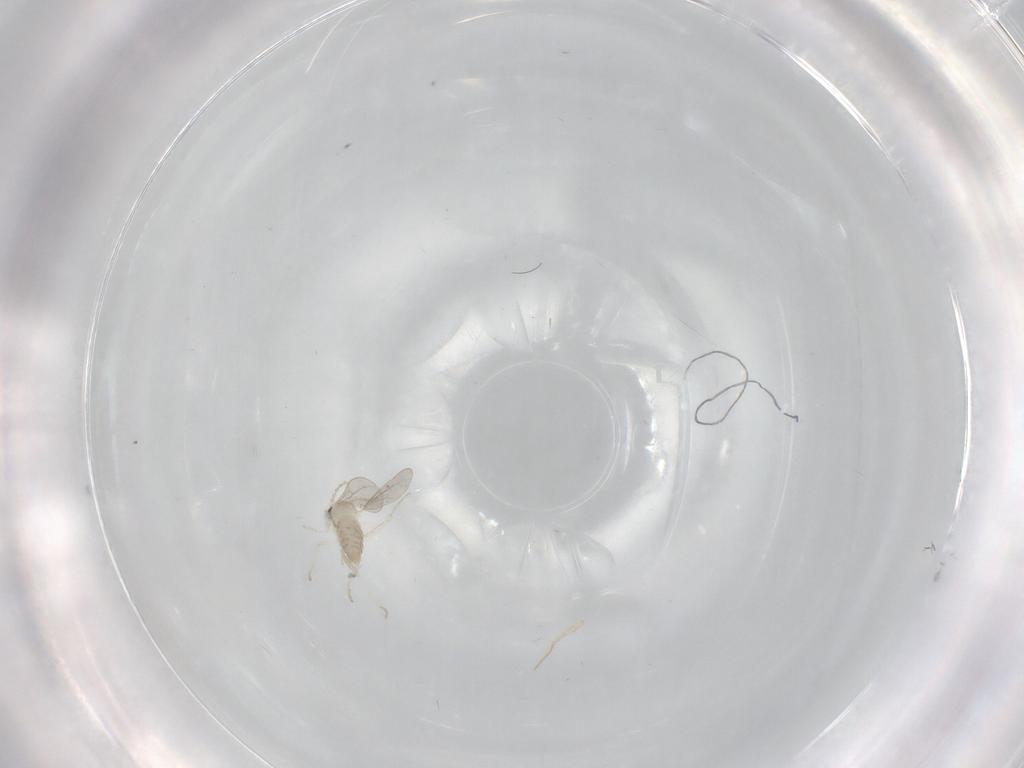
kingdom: Animalia
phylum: Arthropoda
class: Insecta
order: Diptera
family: Cecidomyiidae
